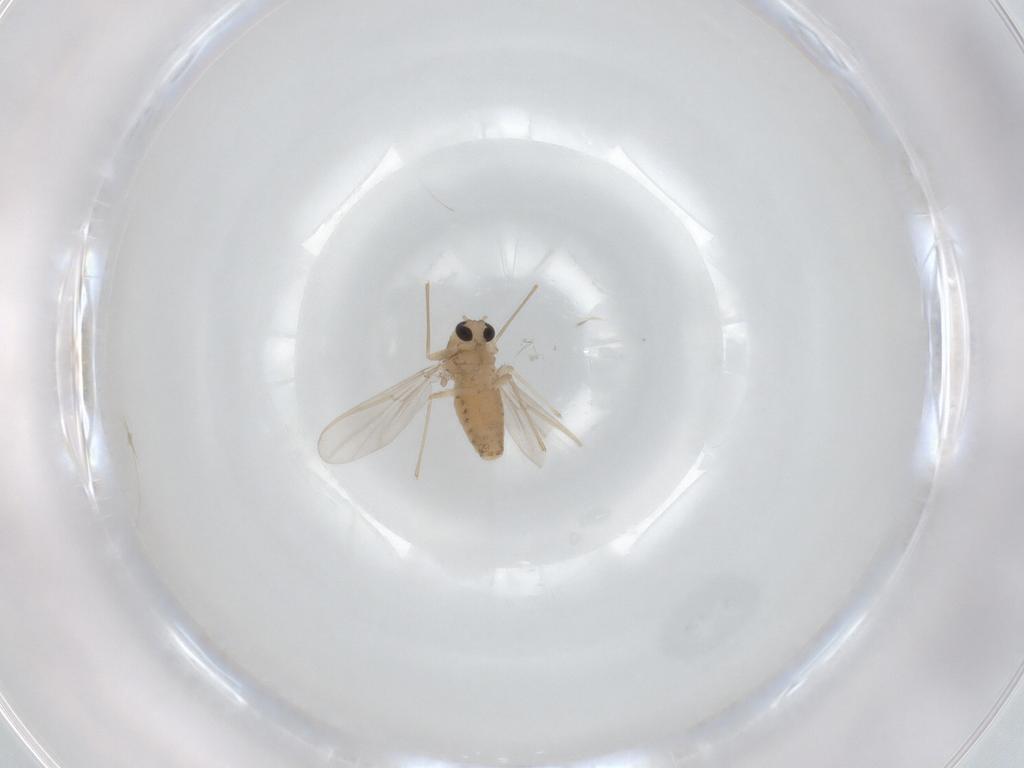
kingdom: Animalia
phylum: Arthropoda
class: Insecta
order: Diptera
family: Chironomidae
